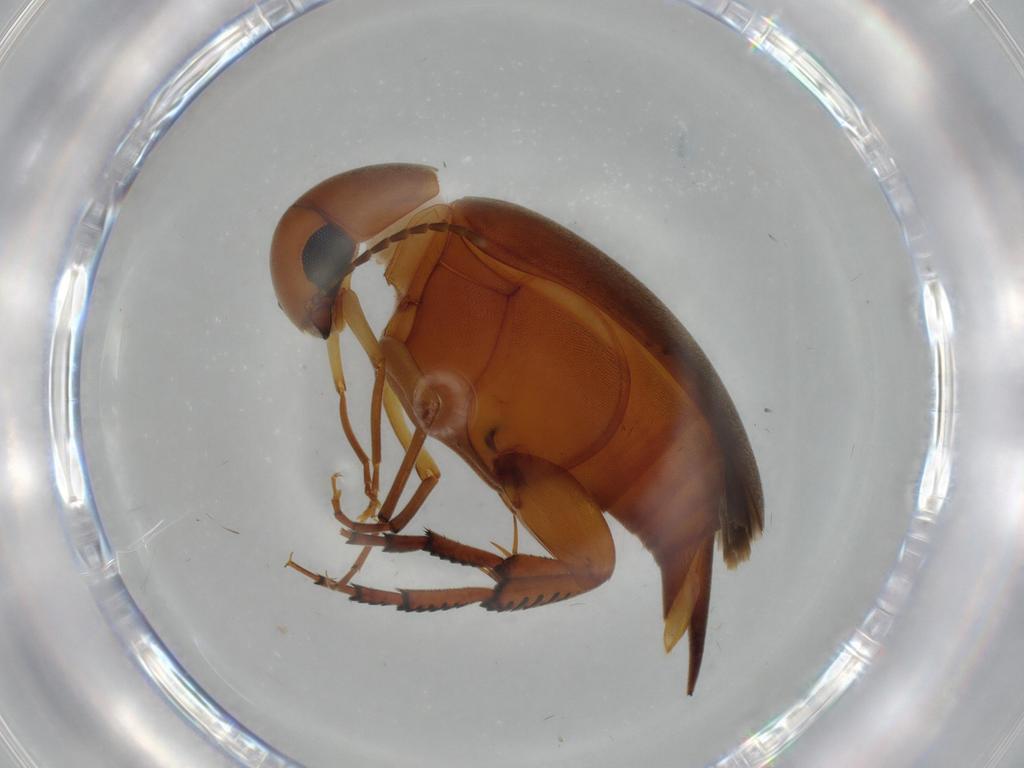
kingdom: Animalia
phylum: Arthropoda
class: Insecta
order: Coleoptera
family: Mordellidae
